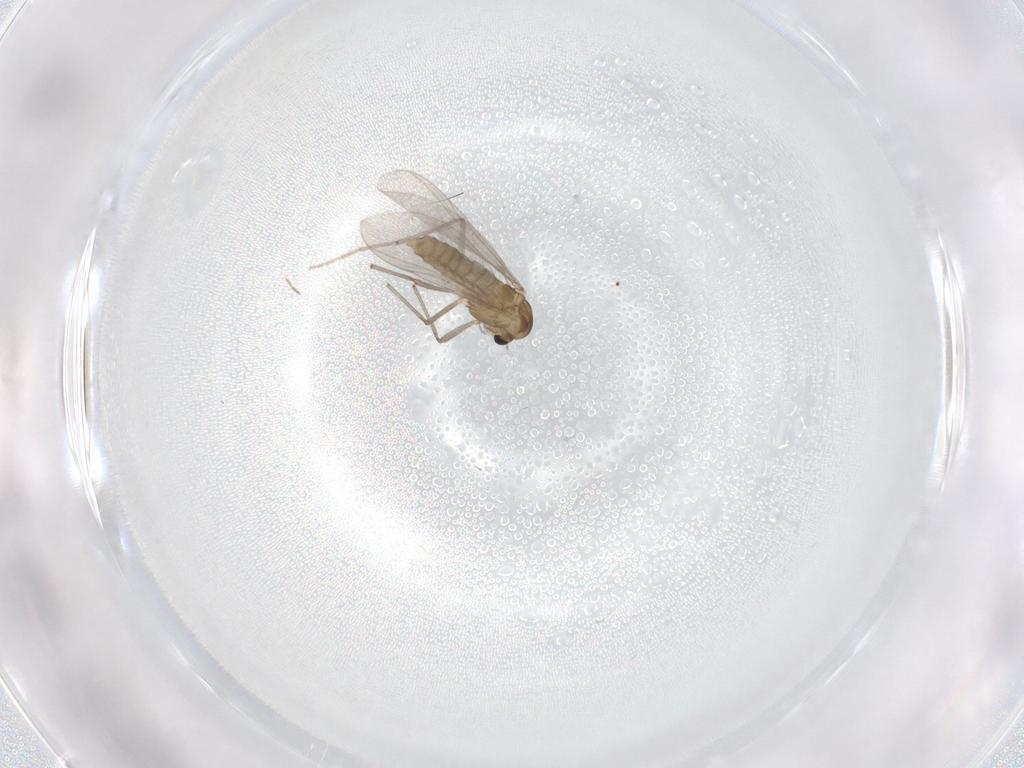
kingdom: Animalia
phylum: Arthropoda
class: Insecta
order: Diptera
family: Chironomidae
